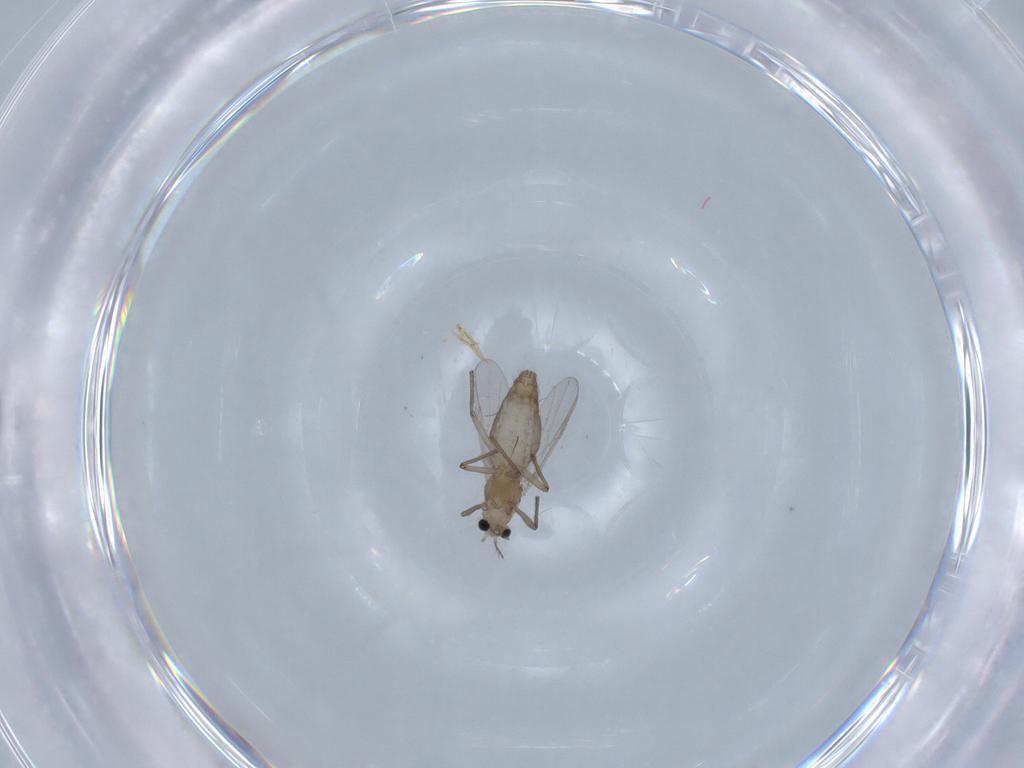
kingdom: Animalia
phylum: Arthropoda
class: Insecta
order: Diptera
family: Chironomidae
